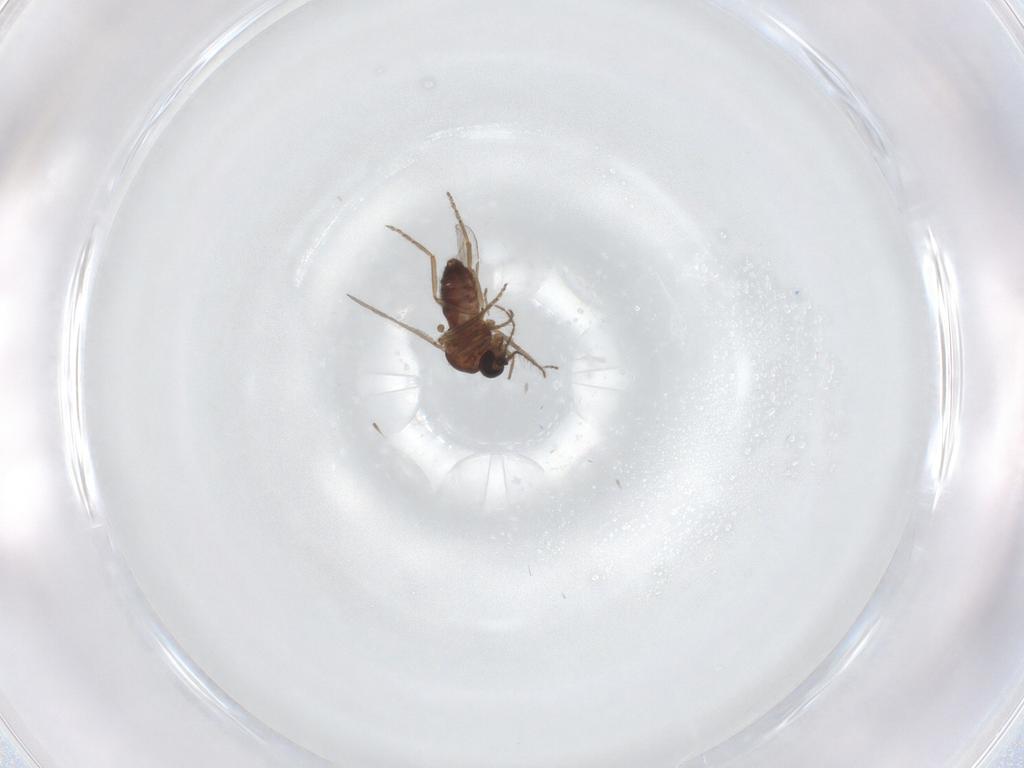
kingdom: Animalia
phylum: Arthropoda
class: Insecta
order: Diptera
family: Ceratopogonidae
